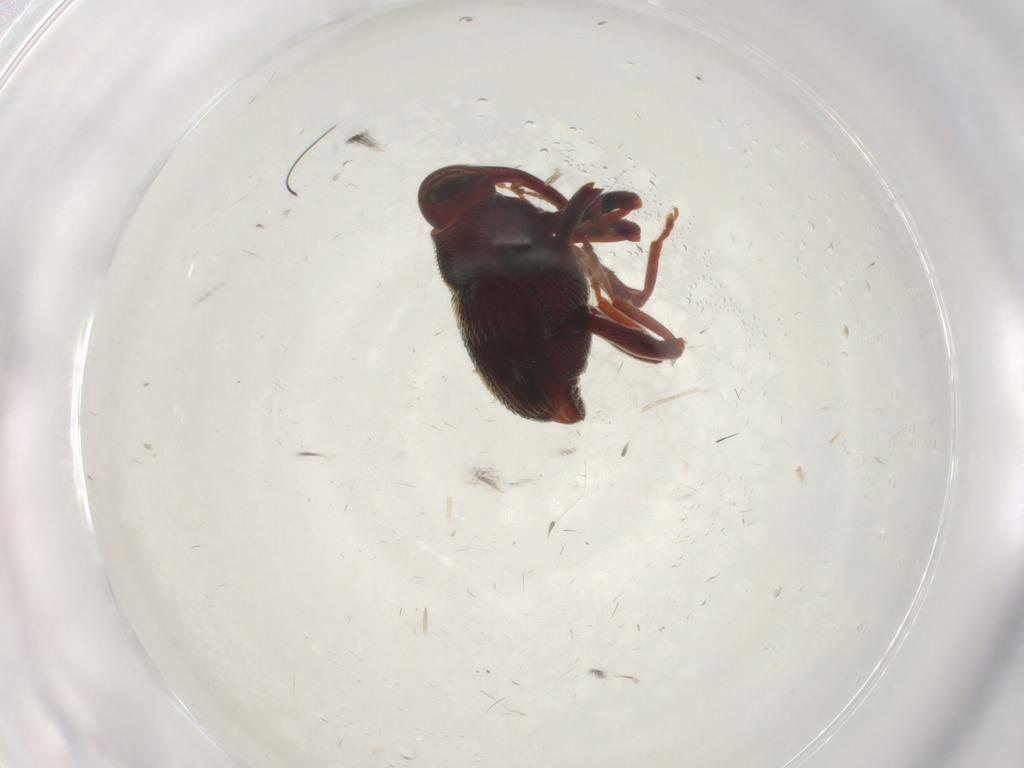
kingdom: Animalia
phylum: Arthropoda
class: Insecta
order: Coleoptera
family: Curculionidae
